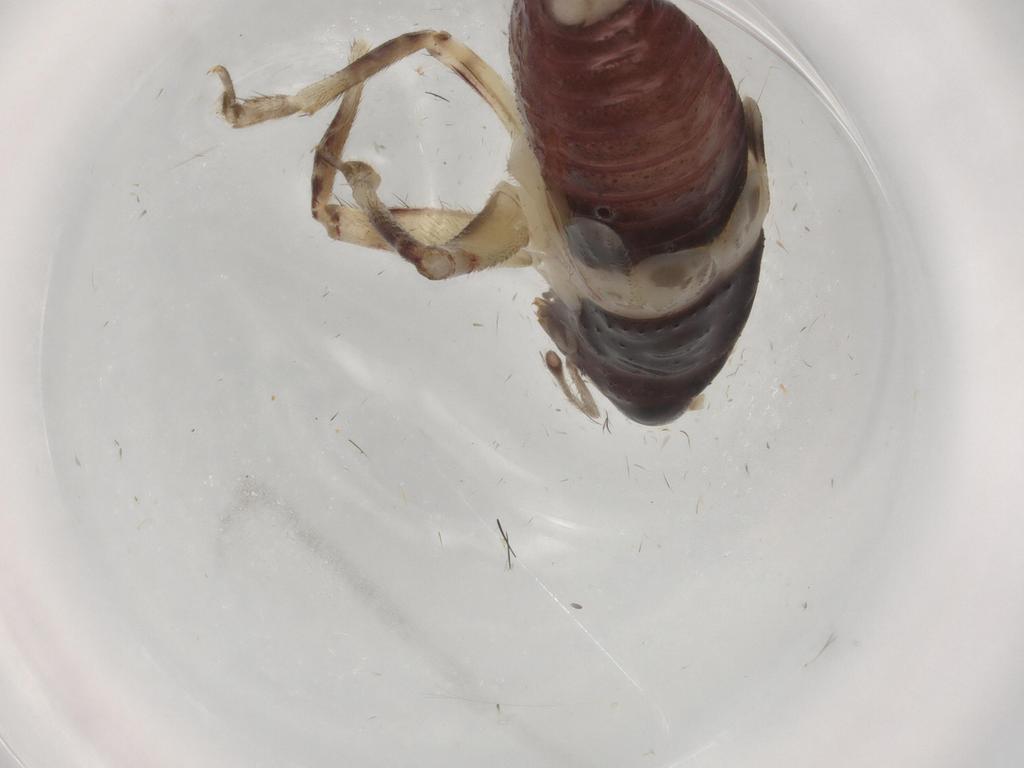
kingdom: Animalia
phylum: Arthropoda
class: Insecta
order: Orthoptera
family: Trigonidiidae
